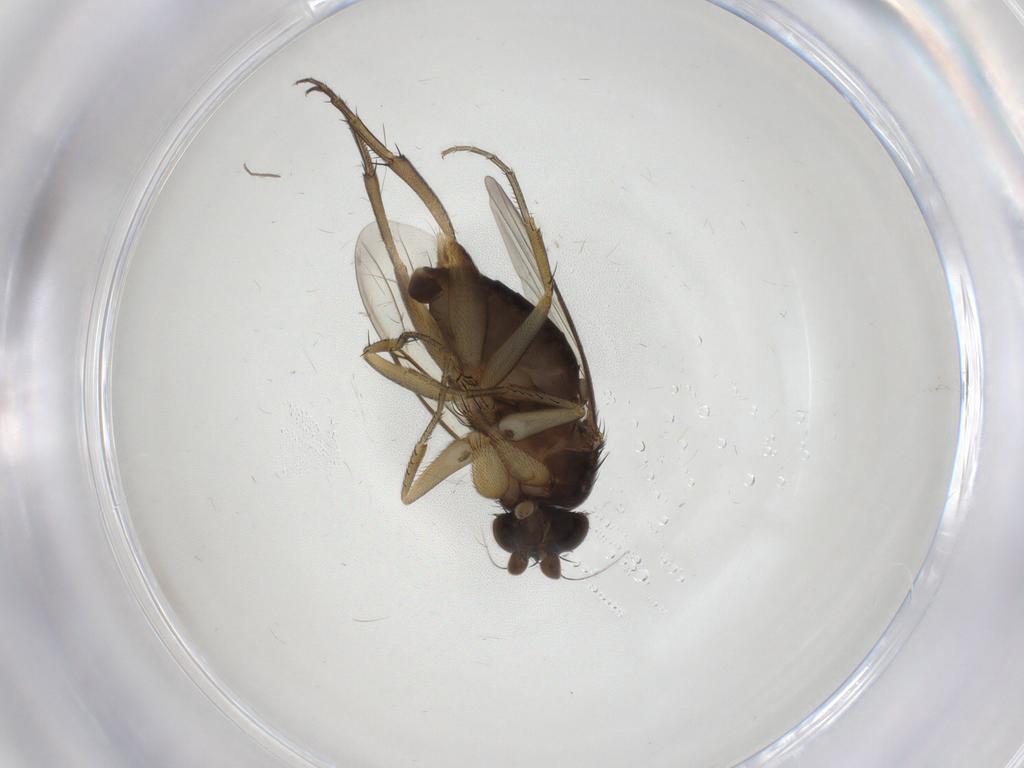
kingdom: Animalia
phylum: Arthropoda
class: Insecta
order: Diptera
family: Phoridae
